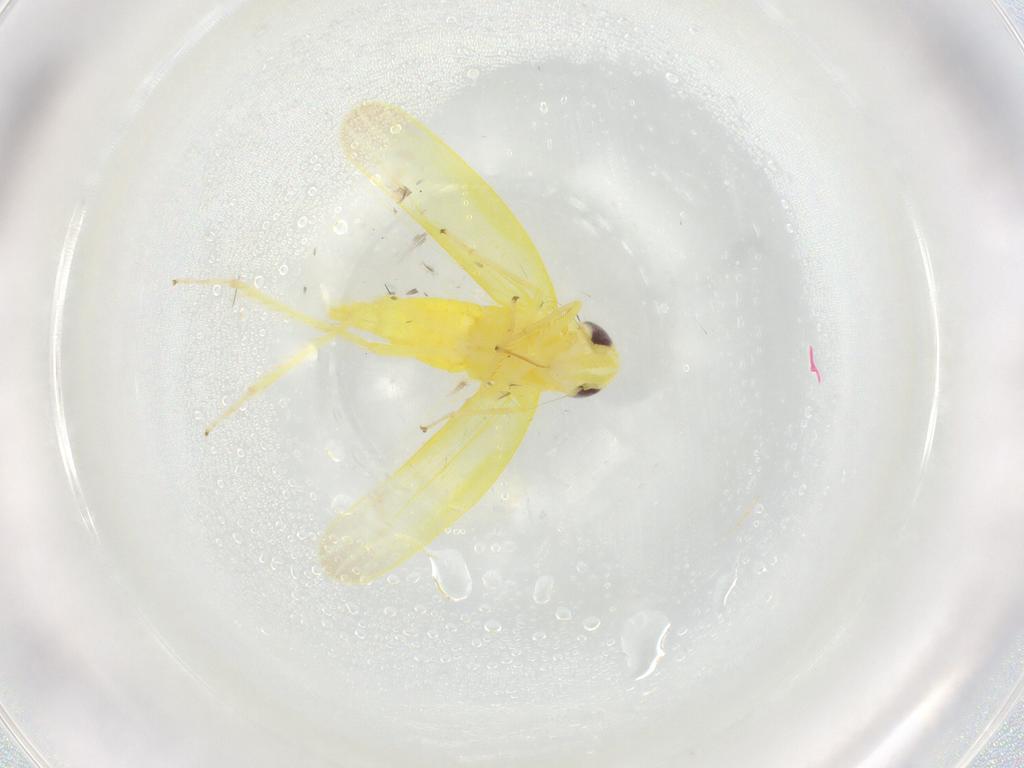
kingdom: Animalia
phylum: Arthropoda
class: Insecta
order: Hemiptera
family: Cicadellidae
